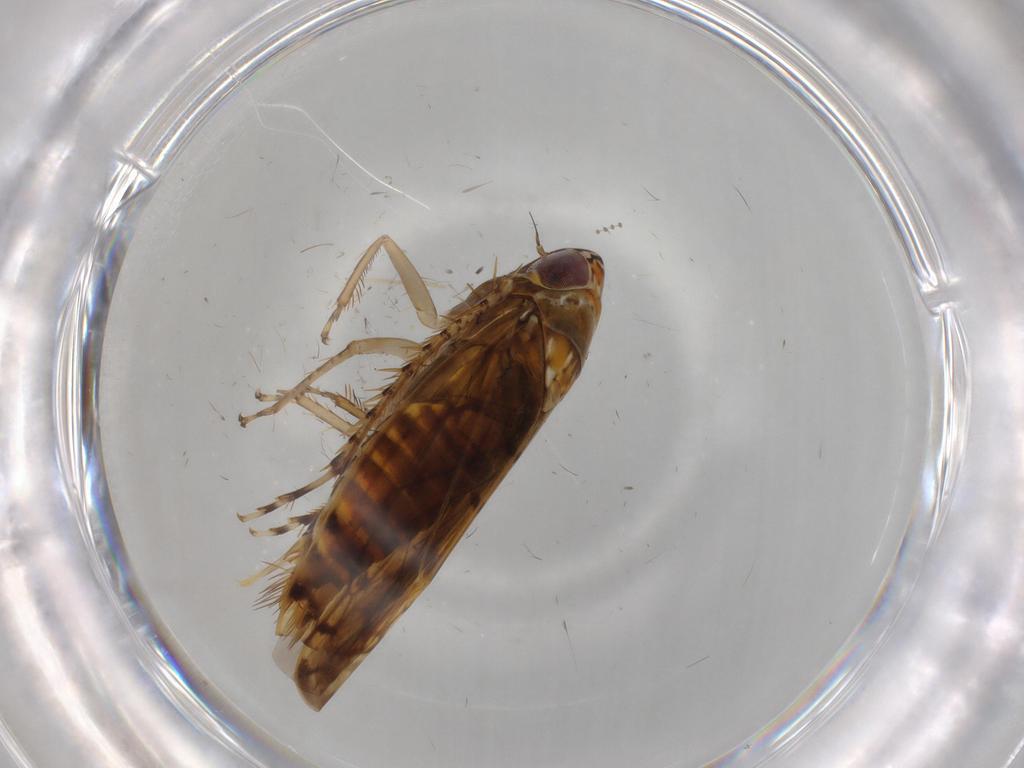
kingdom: Animalia
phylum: Arthropoda
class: Insecta
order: Hemiptera
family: Cicadellidae
